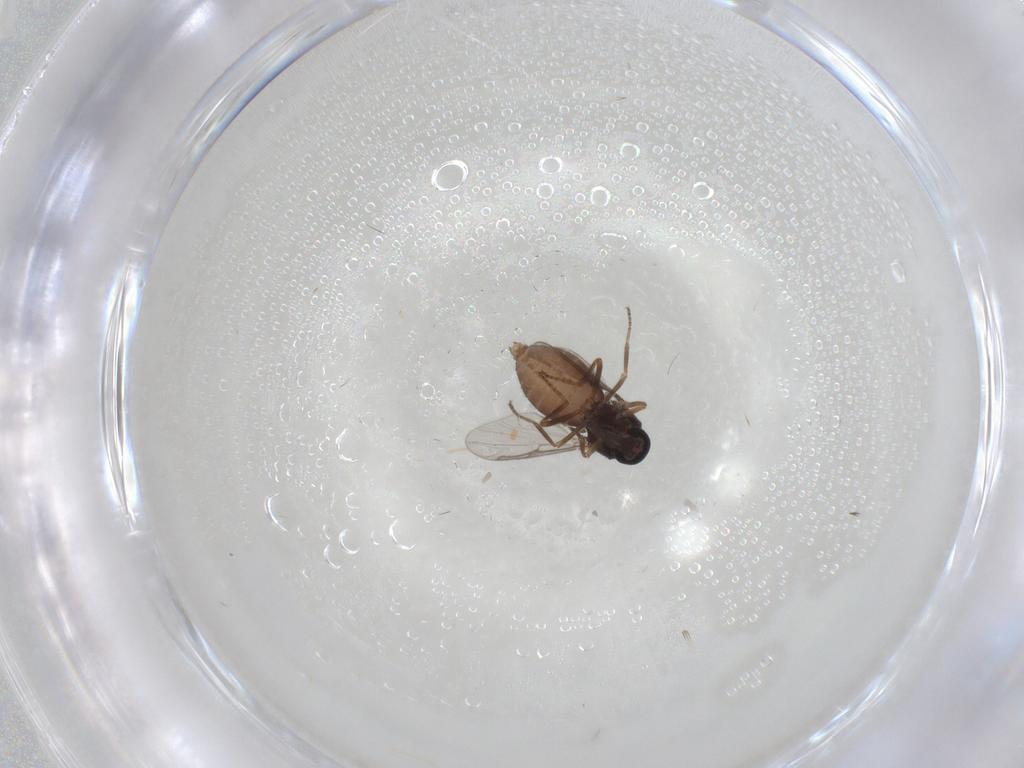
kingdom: Animalia
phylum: Arthropoda
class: Insecta
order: Diptera
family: Ceratopogonidae
